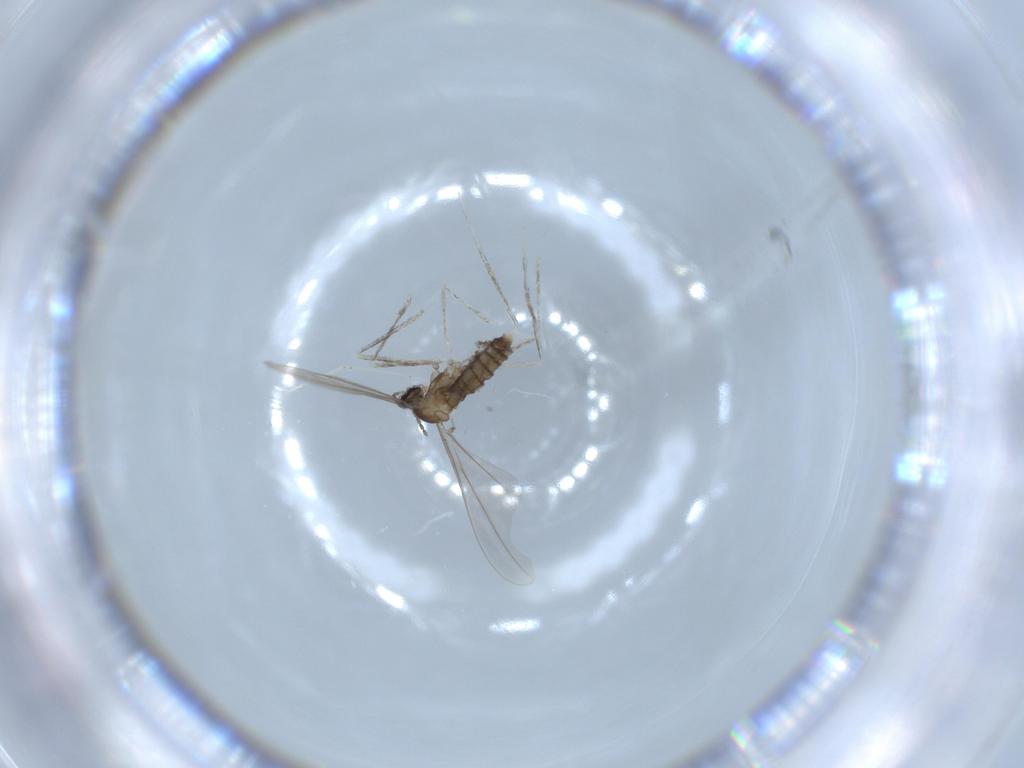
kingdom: Animalia
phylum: Arthropoda
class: Insecta
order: Diptera
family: Cecidomyiidae
